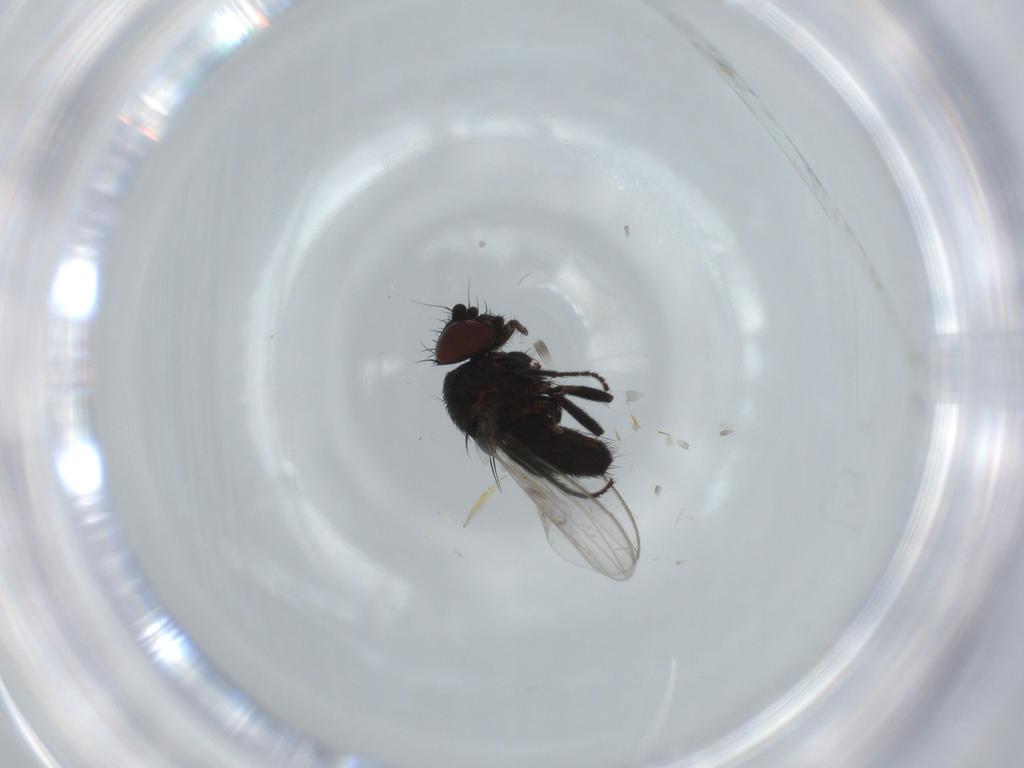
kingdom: Animalia
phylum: Arthropoda
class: Insecta
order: Diptera
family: Milichiidae
